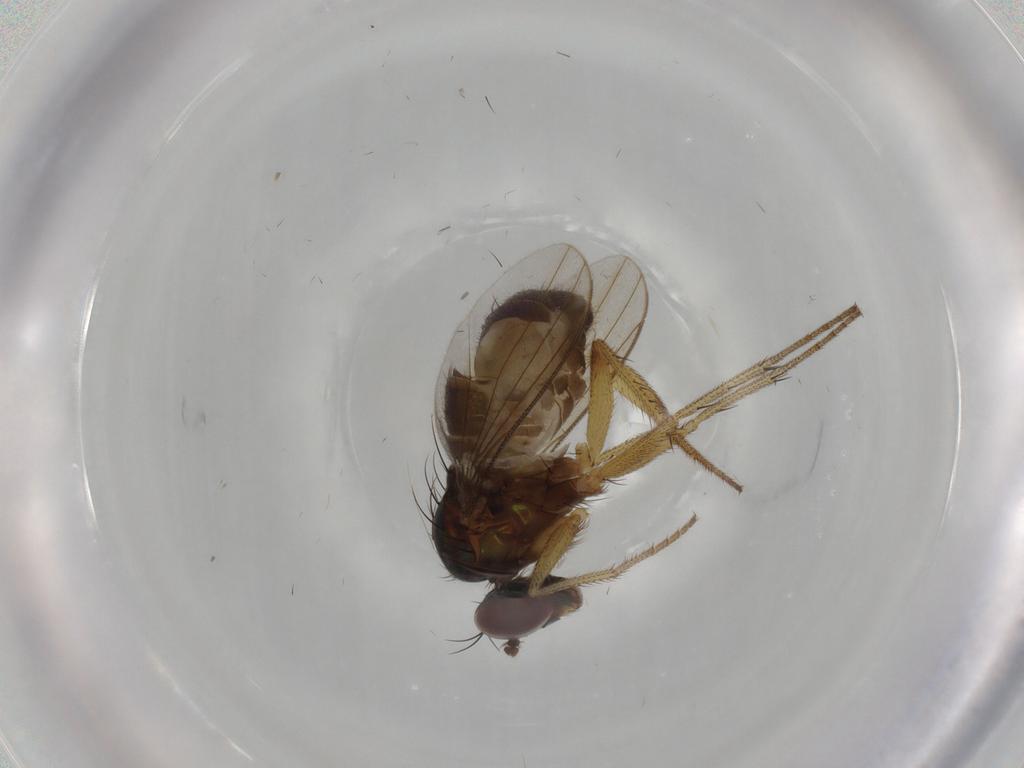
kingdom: Animalia
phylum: Arthropoda
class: Insecta
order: Diptera
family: Dolichopodidae
